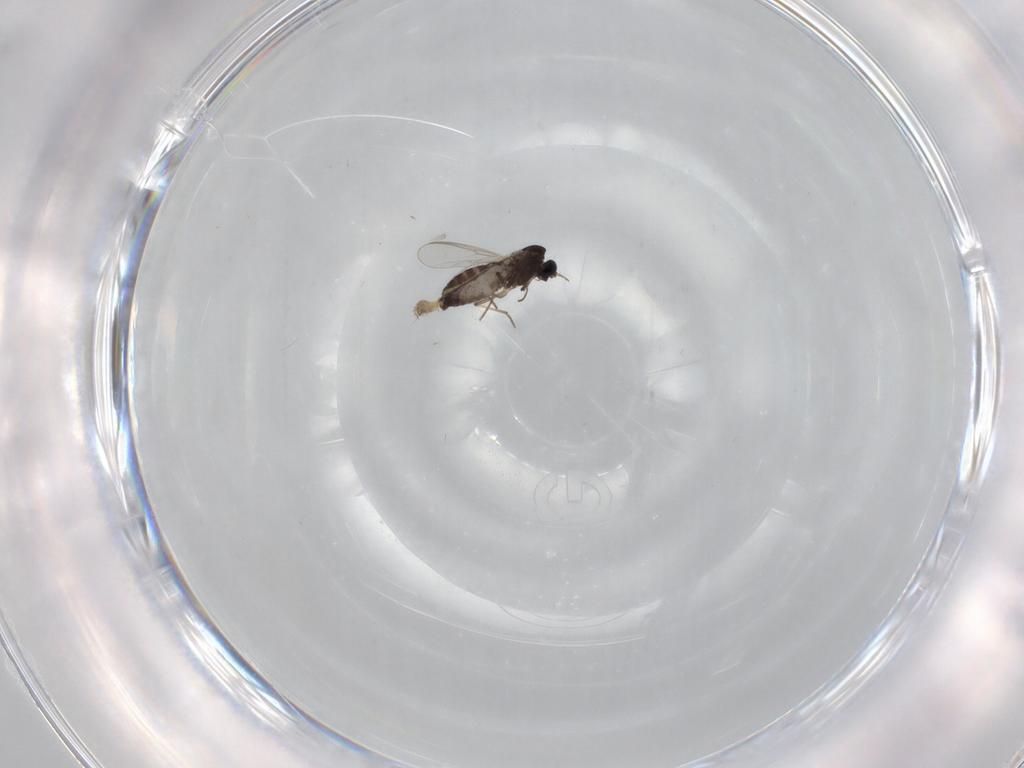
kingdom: Animalia
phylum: Arthropoda
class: Insecta
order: Diptera
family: Chironomidae
